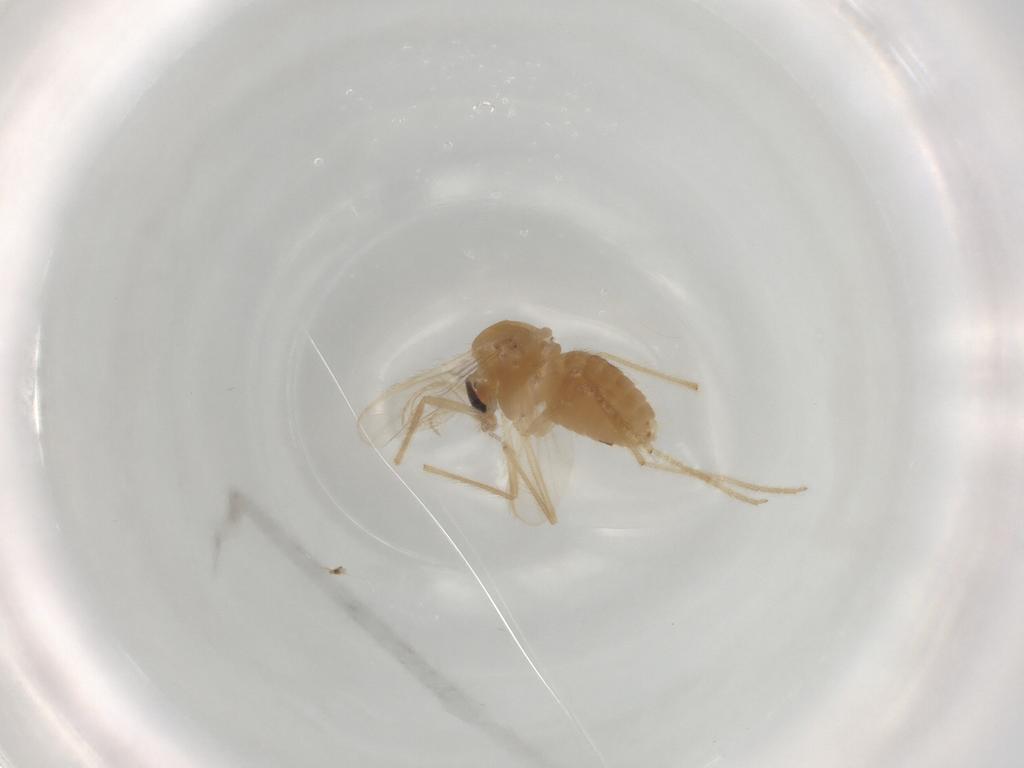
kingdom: Animalia
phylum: Arthropoda
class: Insecta
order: Diptera
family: Chironomidae
